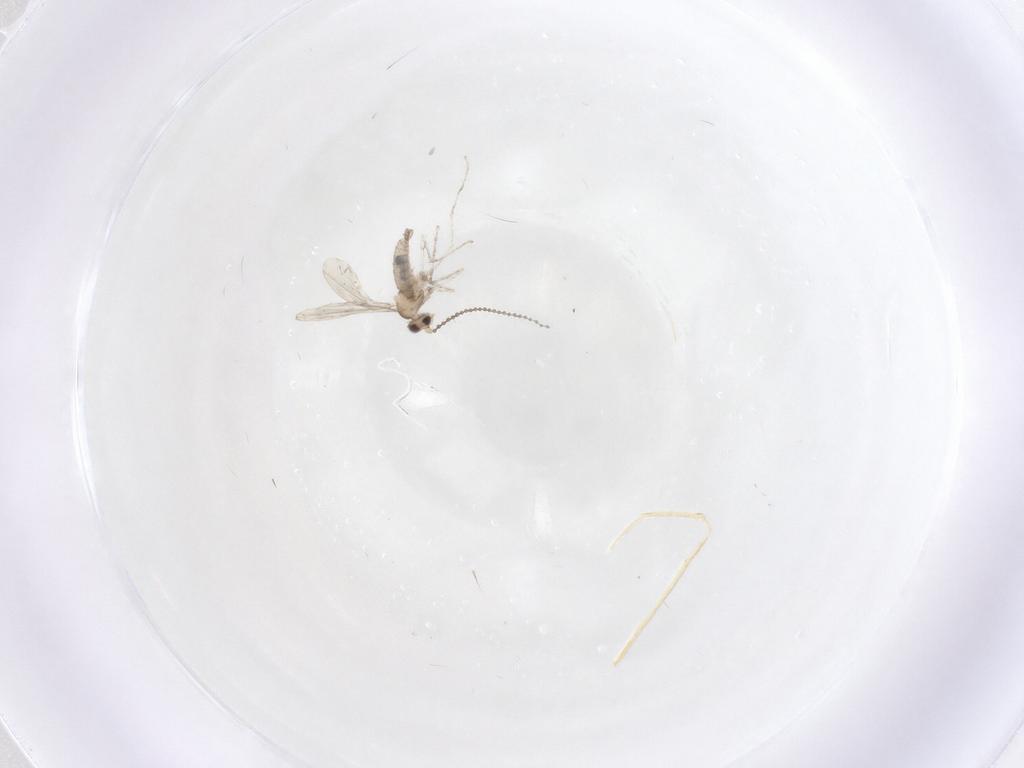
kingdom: Animalia
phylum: Arthropoda
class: Insecta
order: Diptera
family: Cecidomyiidae
